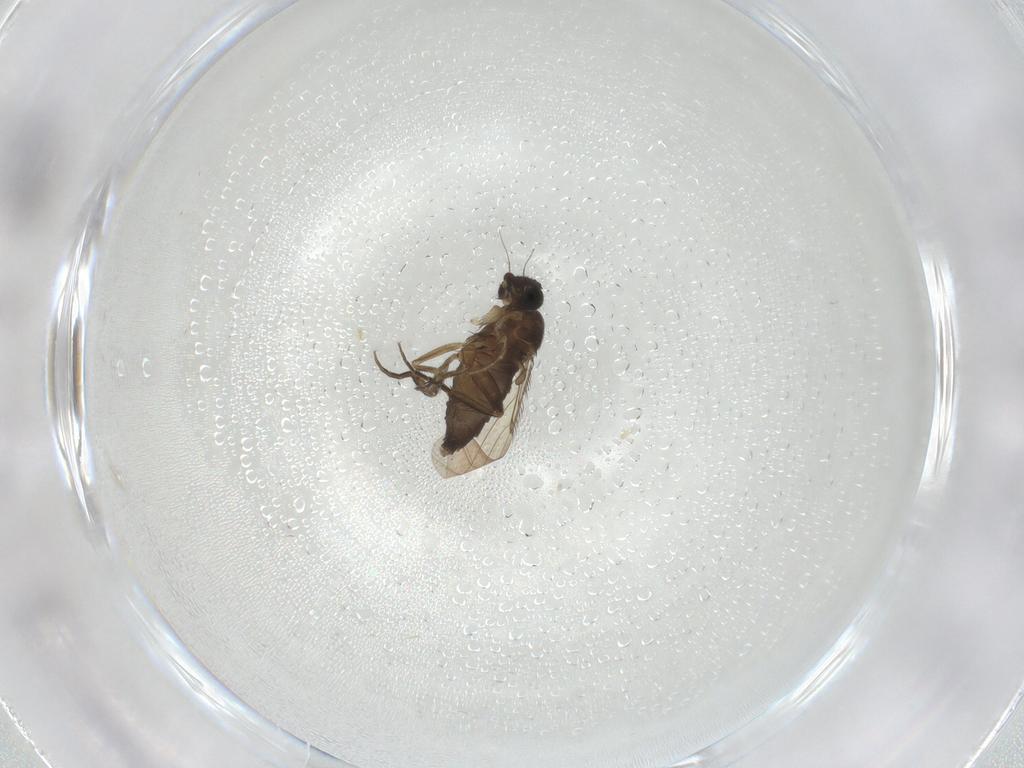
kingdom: Animalia
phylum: Arthropoda
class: Insecta
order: Diptera
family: Phoridae
